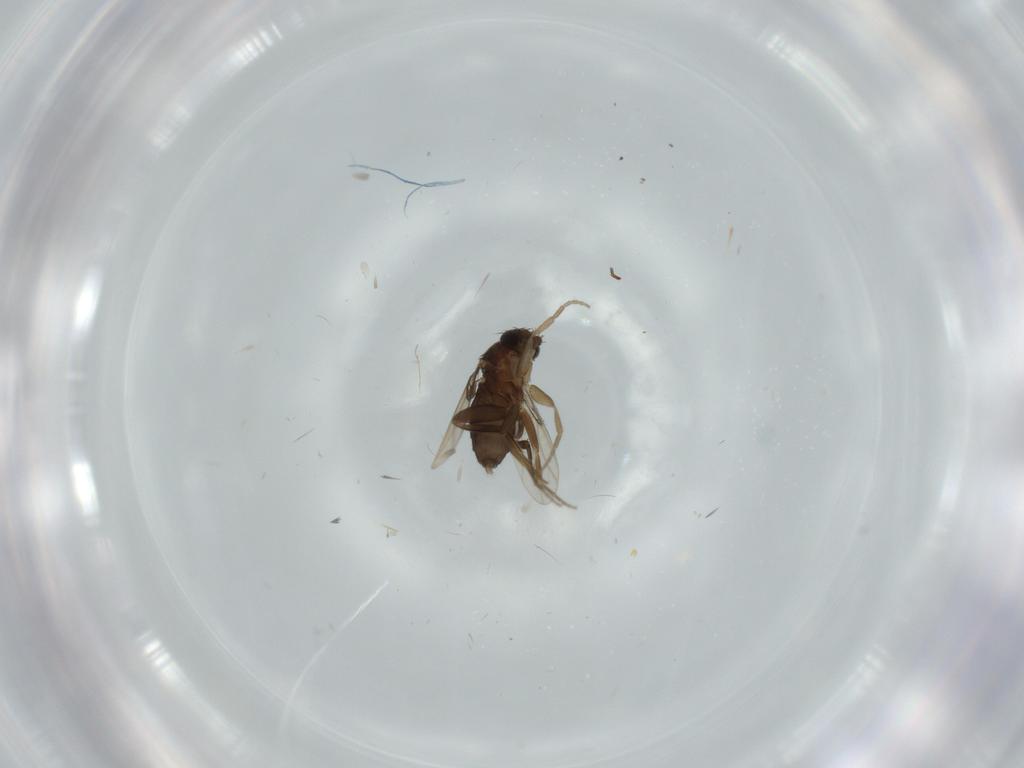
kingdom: Animalia
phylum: Arthropoda
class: Insecta
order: Diptera
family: Phoridae
